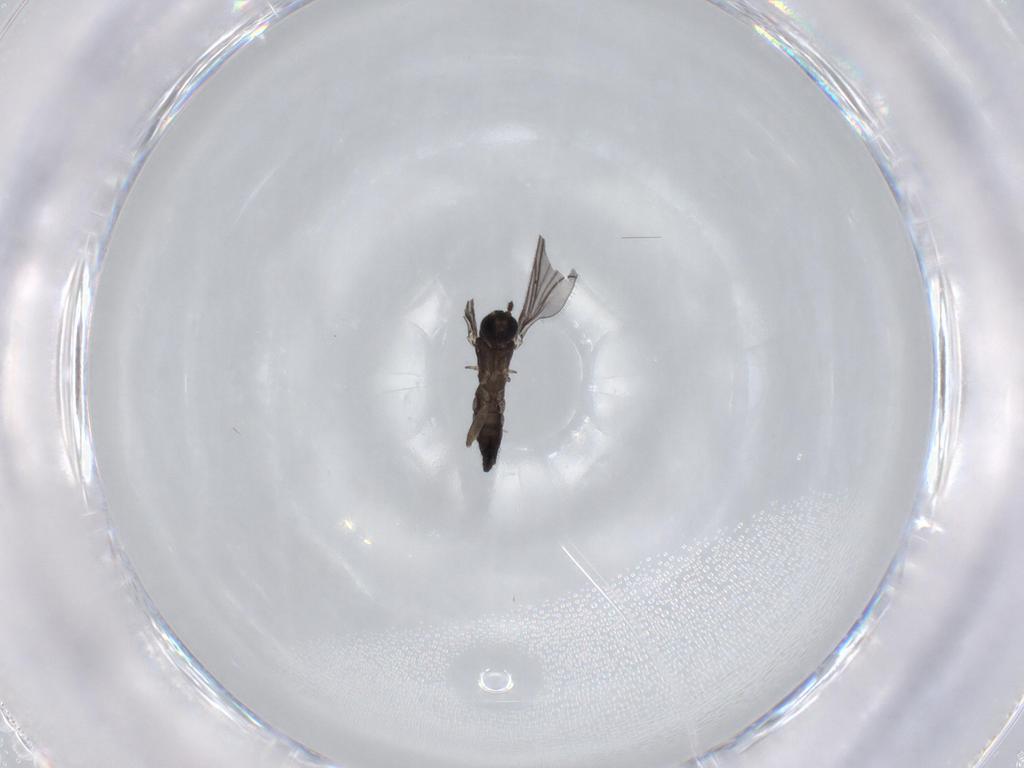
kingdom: Animalia
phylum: Arthropoda
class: Insecta
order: Diptera
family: Sciaridae
